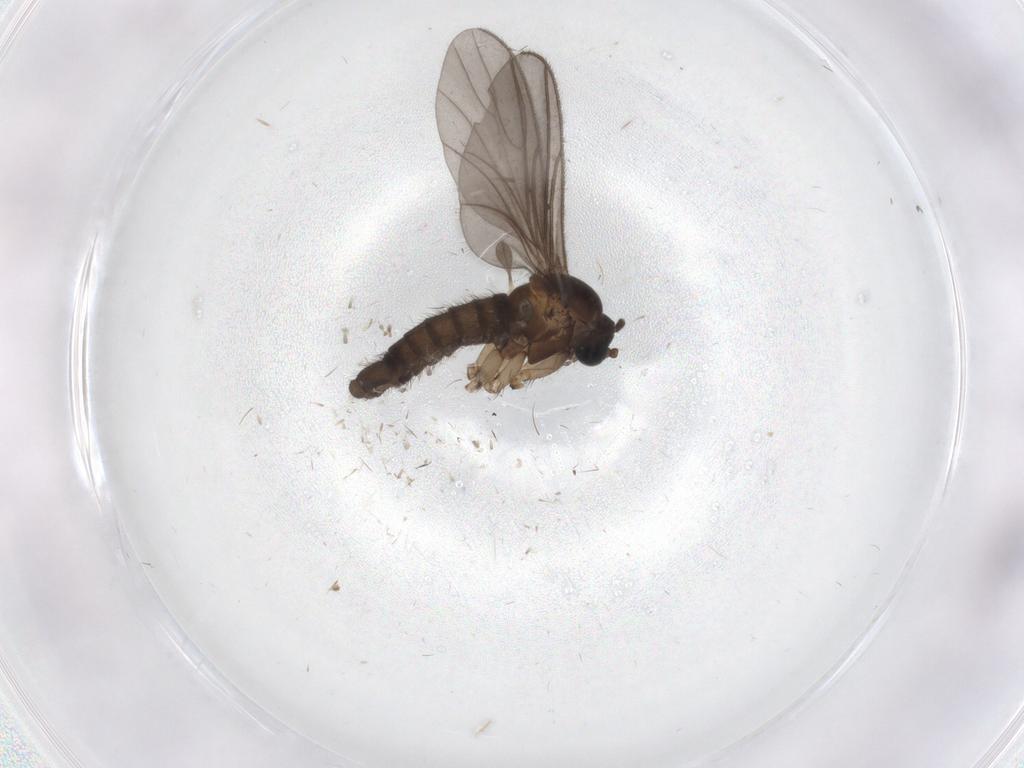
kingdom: Animalia
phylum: Arthropoda
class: Insecta
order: Diptera
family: Sciaridae
